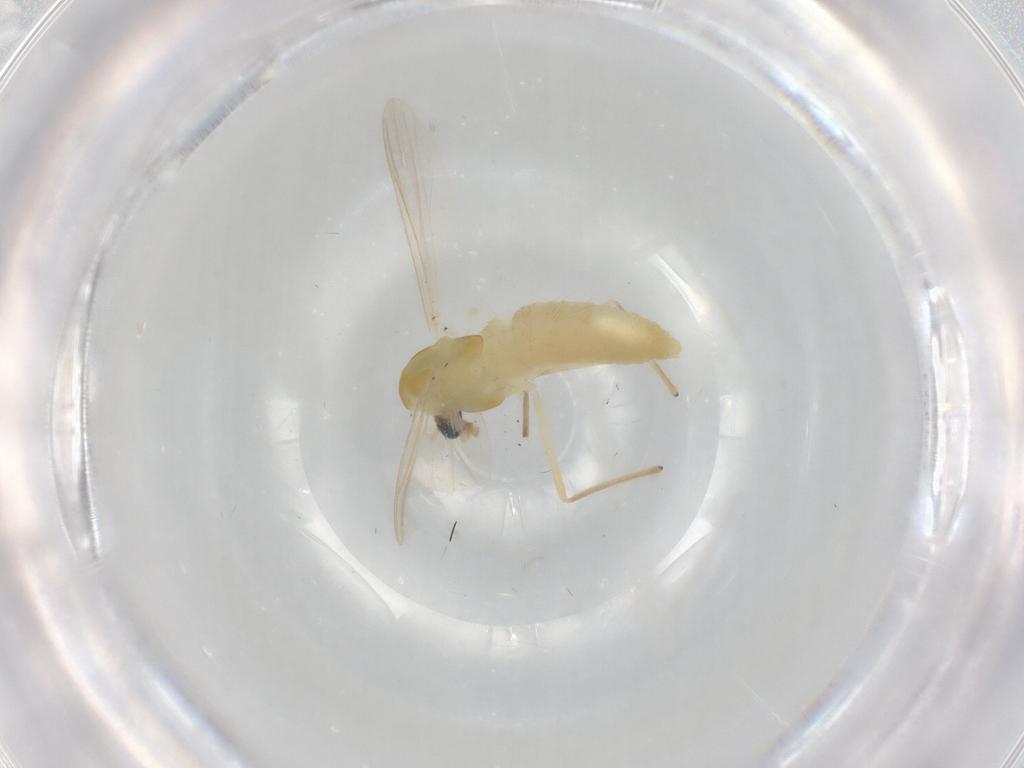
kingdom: Animalia
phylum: Arthropoda
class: Insecta
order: Diptera
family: Chironomidae
